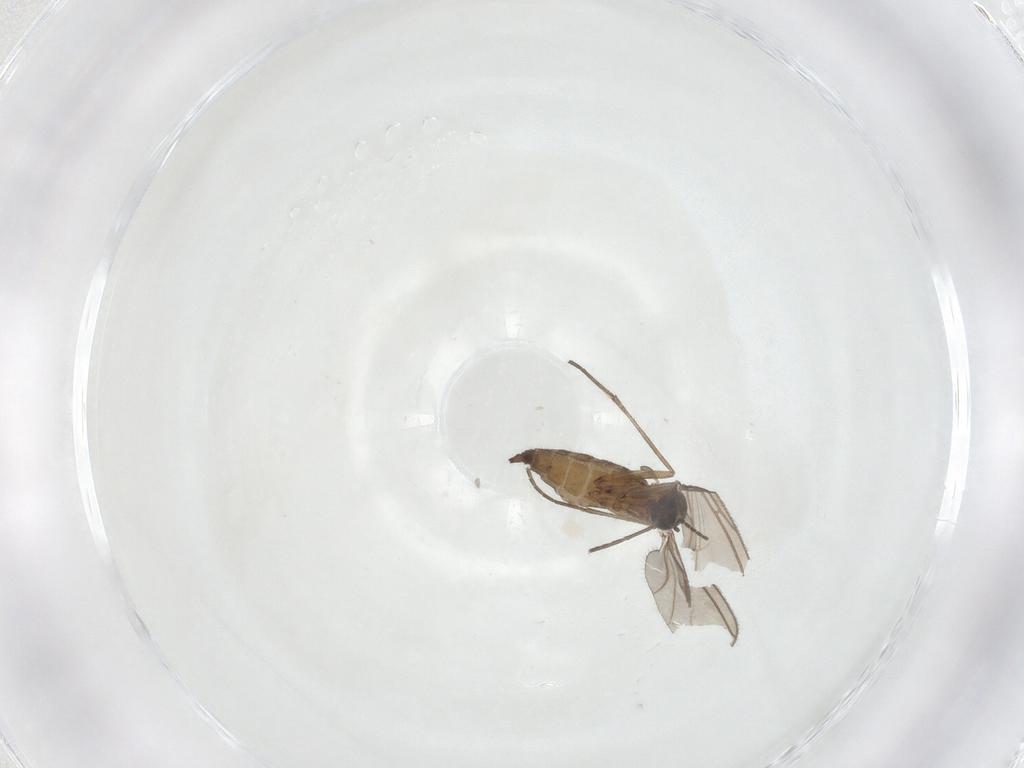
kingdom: Animalia
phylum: Arthropoda
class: Insecta
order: Diptera
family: Sciaridae
